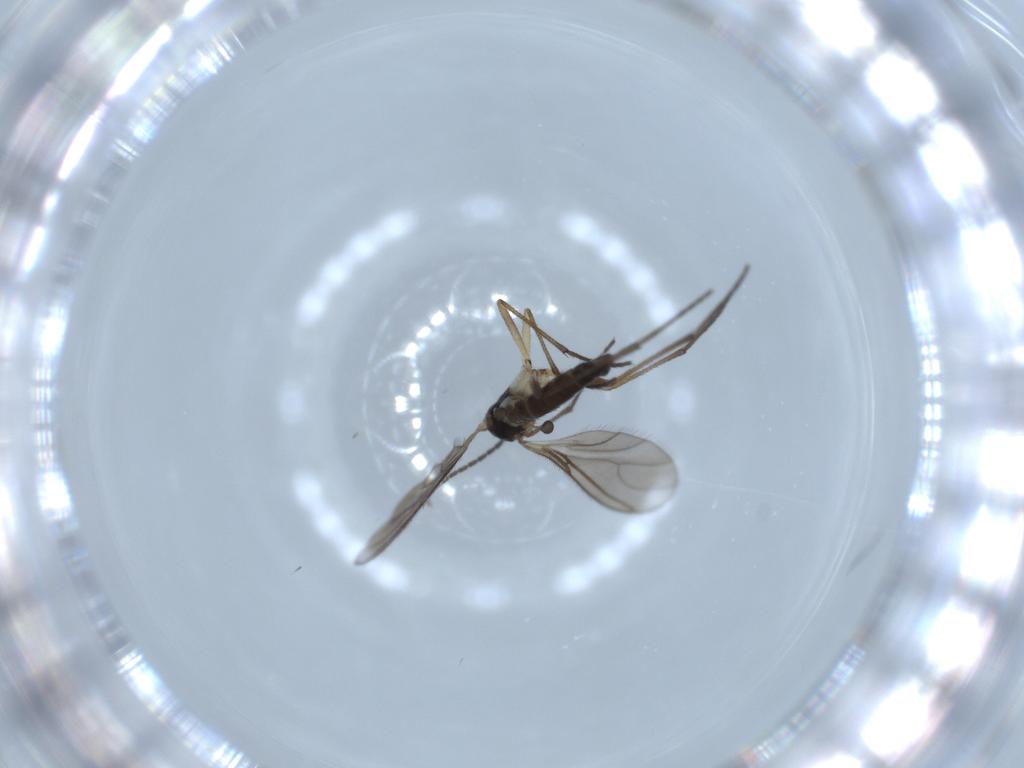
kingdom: Animalia
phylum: Arthropoda
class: Insecta
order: Diptera
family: Sciaridae
